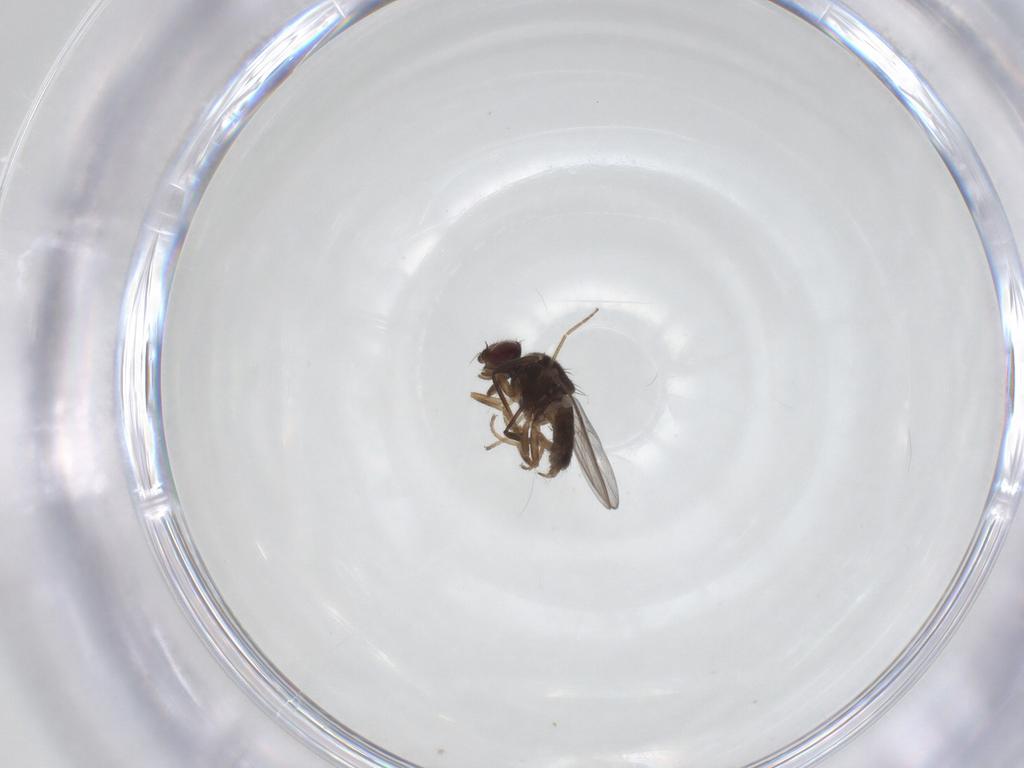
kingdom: Animalia
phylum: Arthropoda
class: Insecta
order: Diptera
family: Chloropidae
